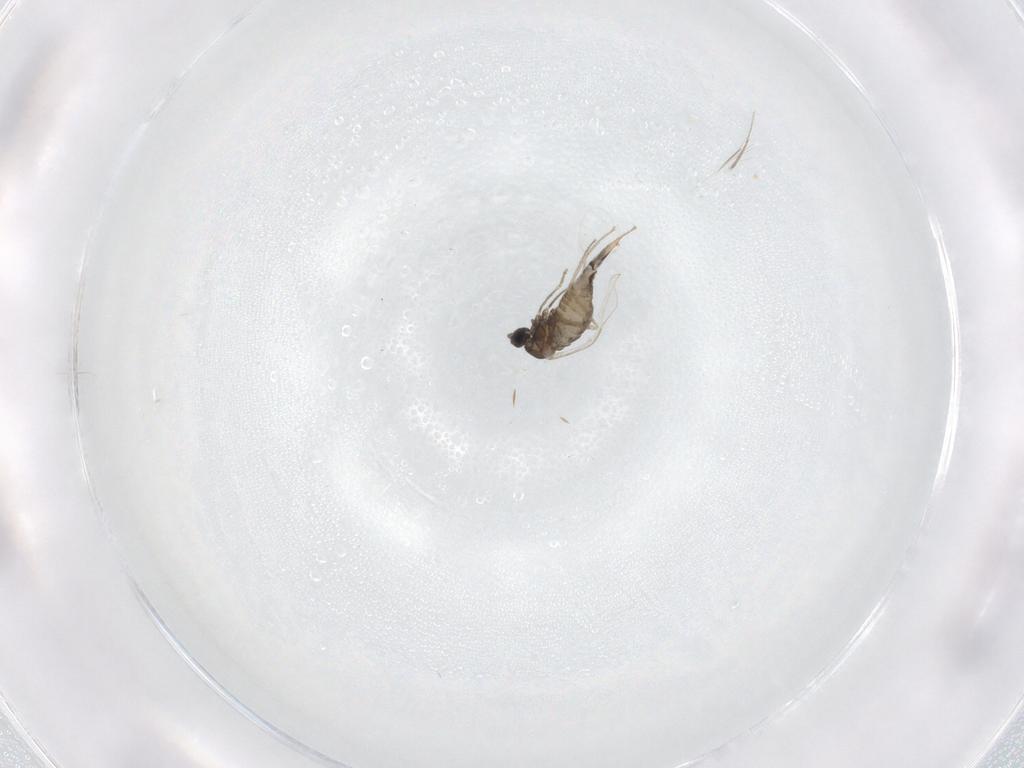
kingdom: Animalia
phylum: Arthropoda
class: Insecta
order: Diptera
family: Cecidomyiidae
